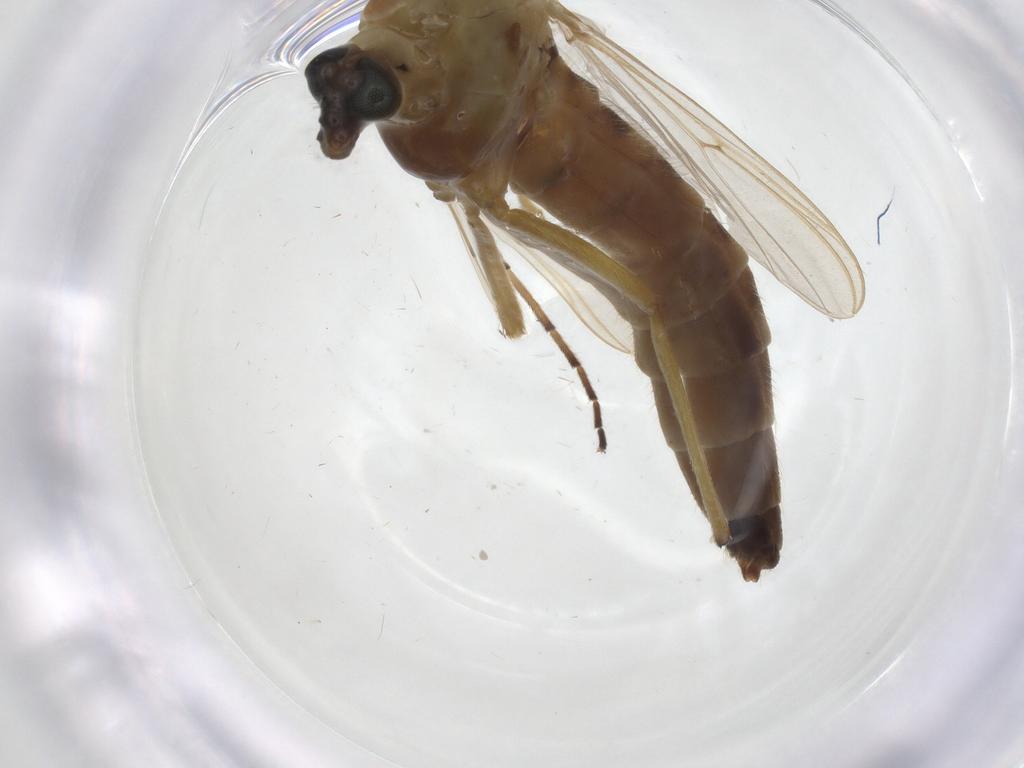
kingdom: Animalia
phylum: Arthropoda
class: Insecta
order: Diptera
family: Chironomidae
